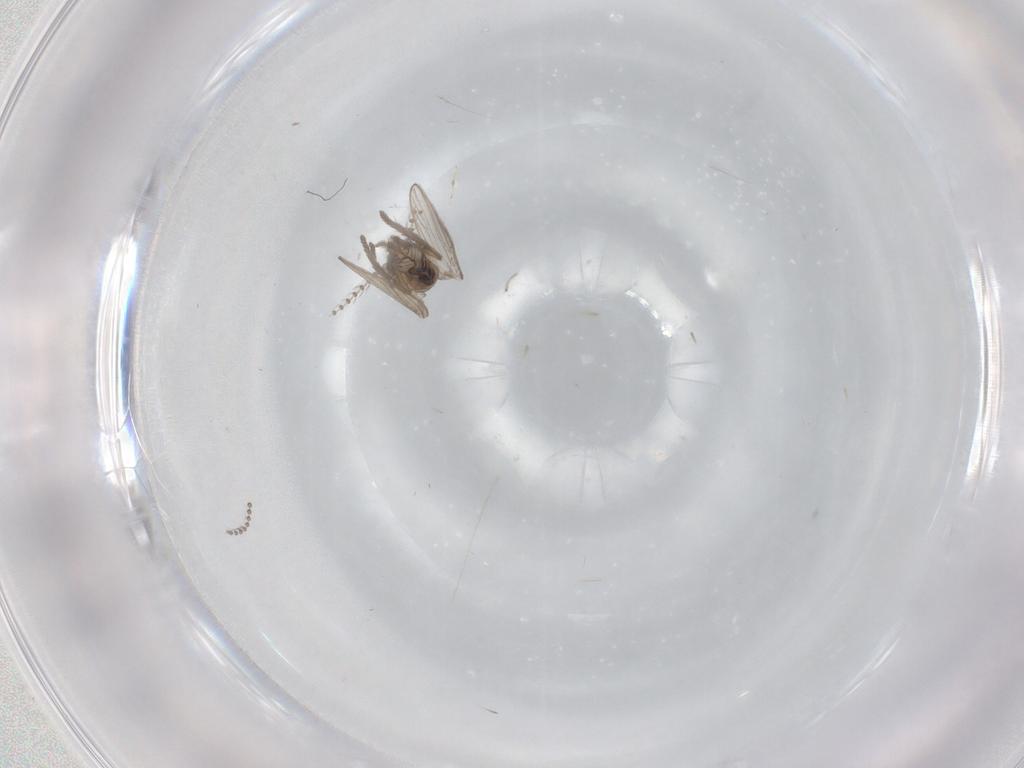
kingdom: Animalia
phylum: Arthropoda
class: Insecta
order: Diptera
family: Psychodidae
